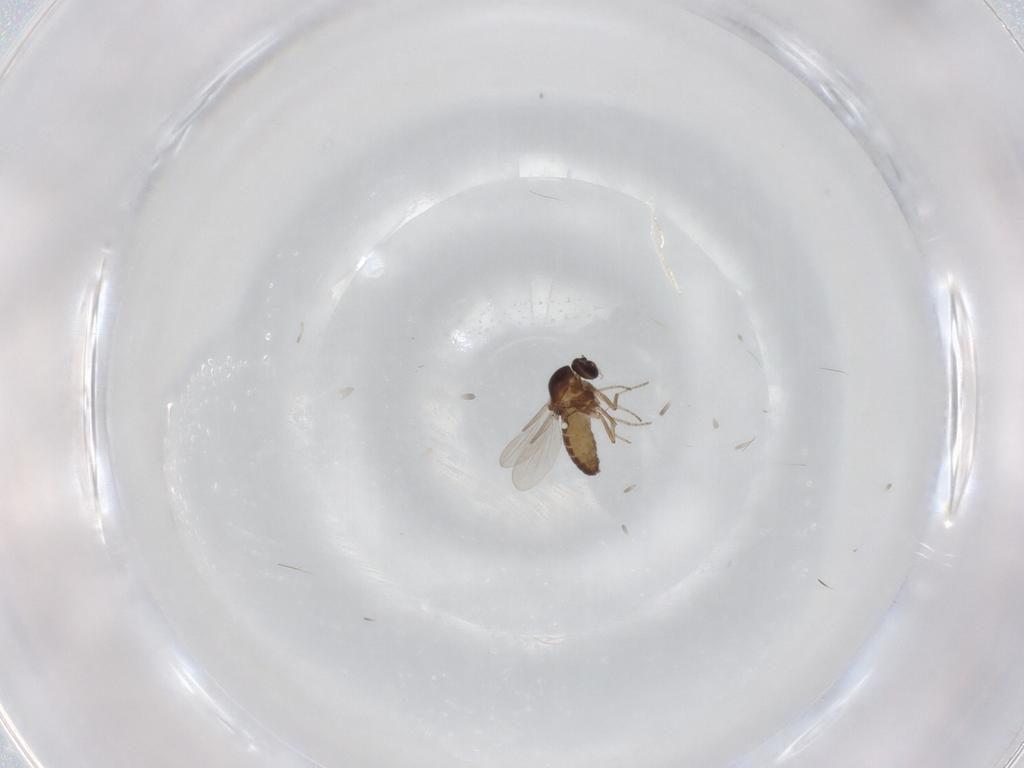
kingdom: Animalia
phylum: Arthropoda
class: Insecta
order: Diptera
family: Ceratopogonidae
